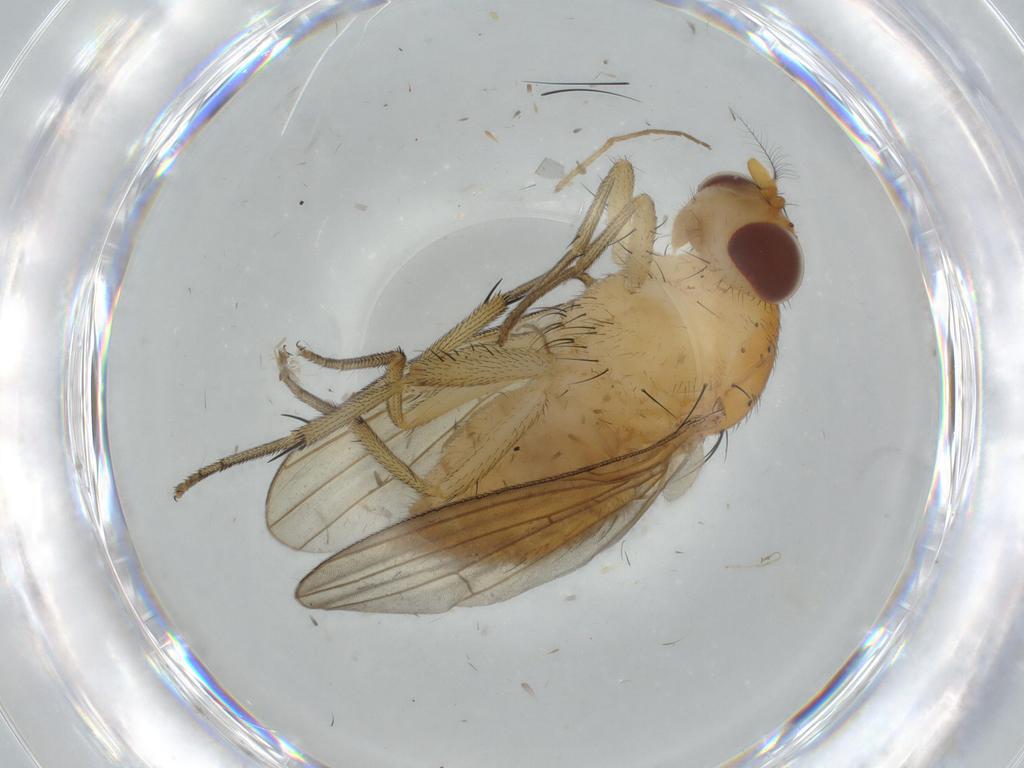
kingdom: Animalia
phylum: Arthropoda
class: Insecta
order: Diptera
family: Ceratopogonidae
